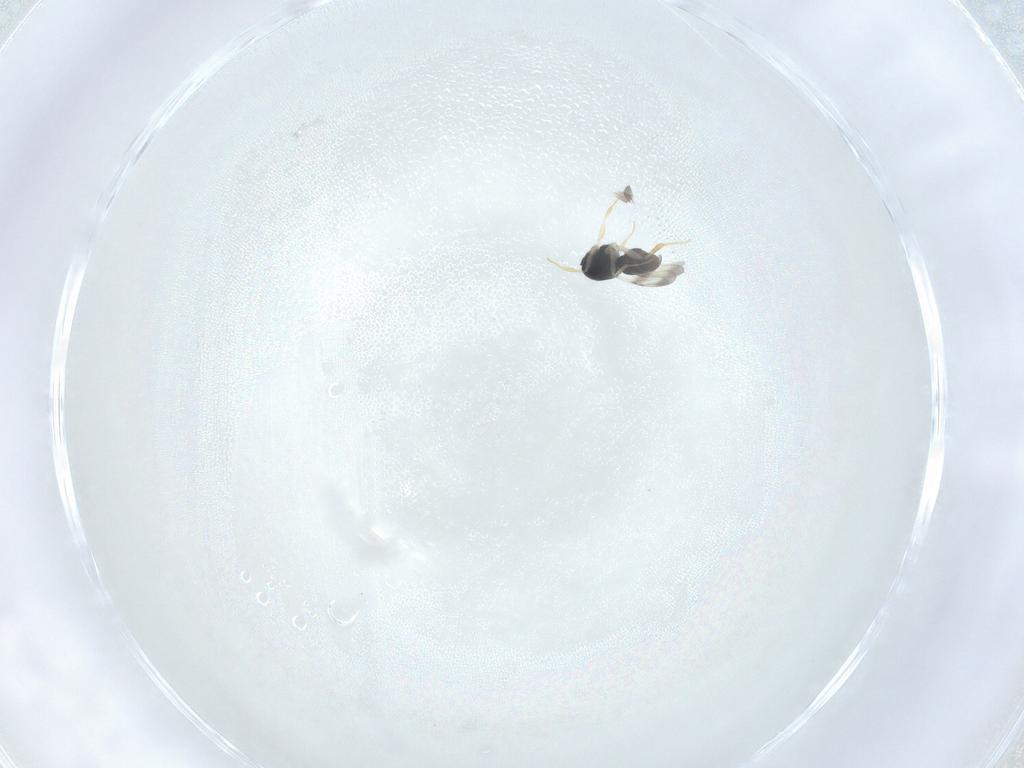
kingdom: Animalia
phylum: Arthropoda
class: Insecta
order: Hymenoptera
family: Ceraphronidae
